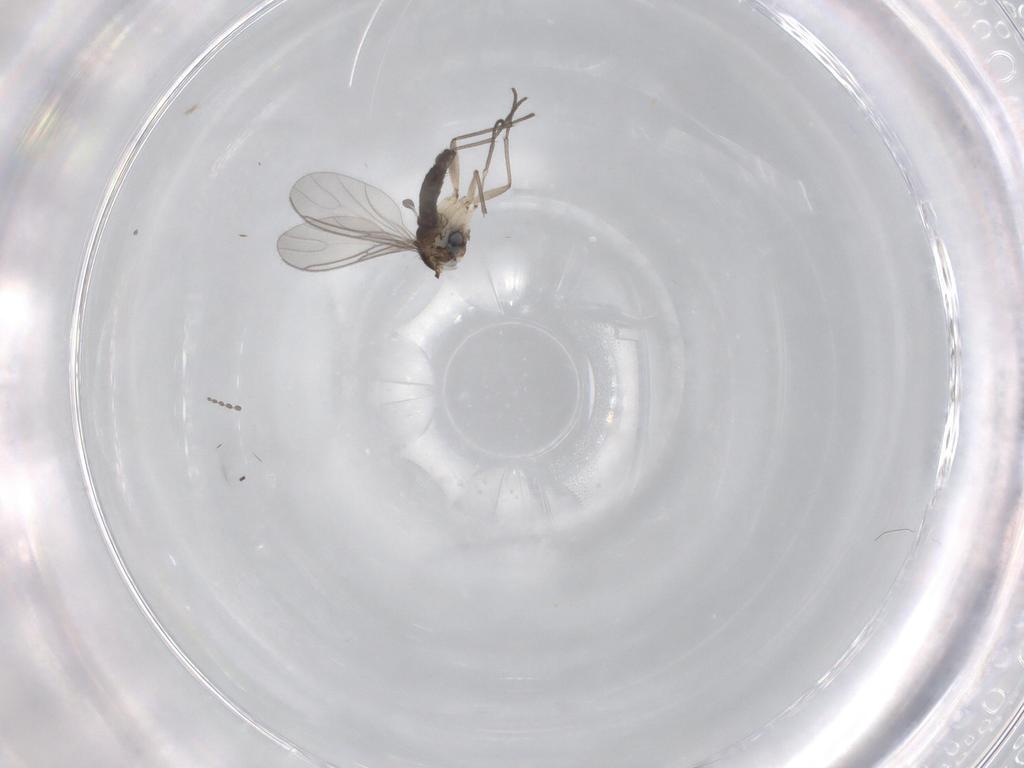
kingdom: Animalia
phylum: Arthropoda
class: Insecta
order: Diptera
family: Sciaridae
